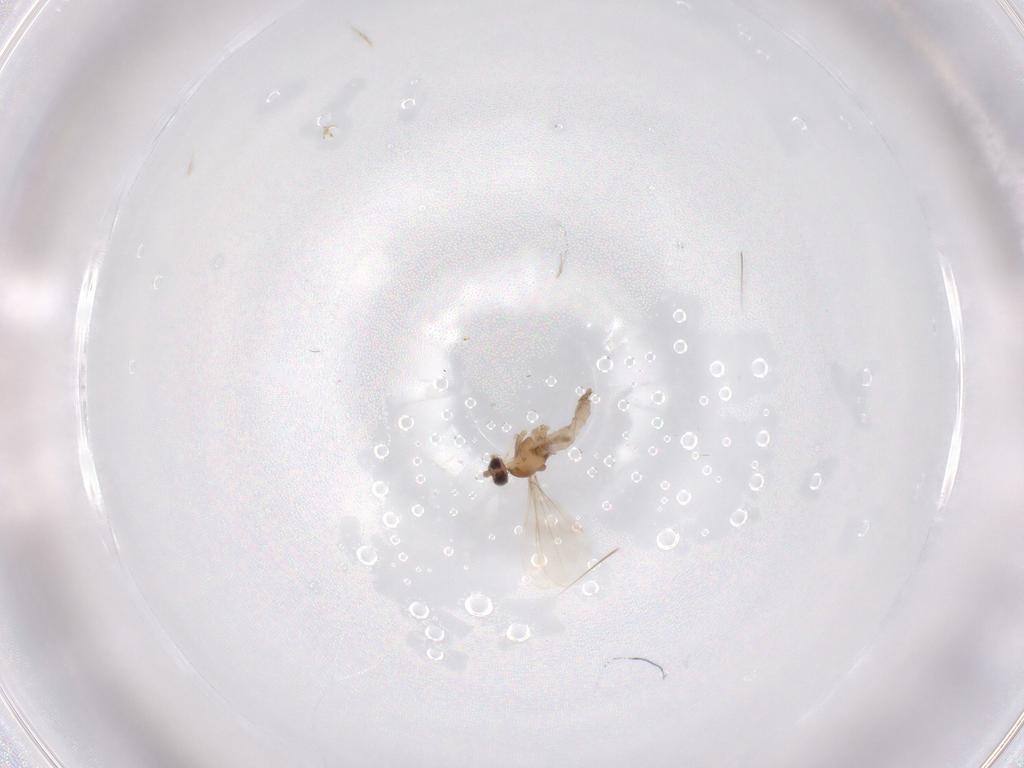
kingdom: Animalia
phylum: Arthropoda
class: Insecta
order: Diptera
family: Cecidomyiidae
